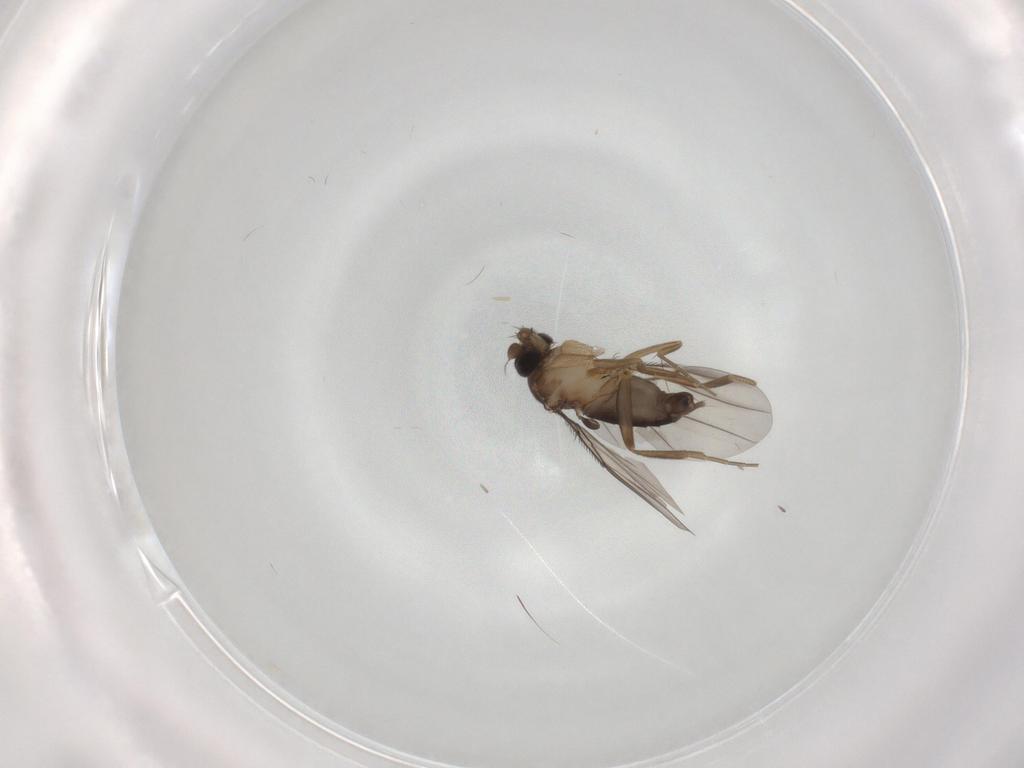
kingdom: Animalia
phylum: Arthropoda
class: Insecta
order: Diptera
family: Phoridae
